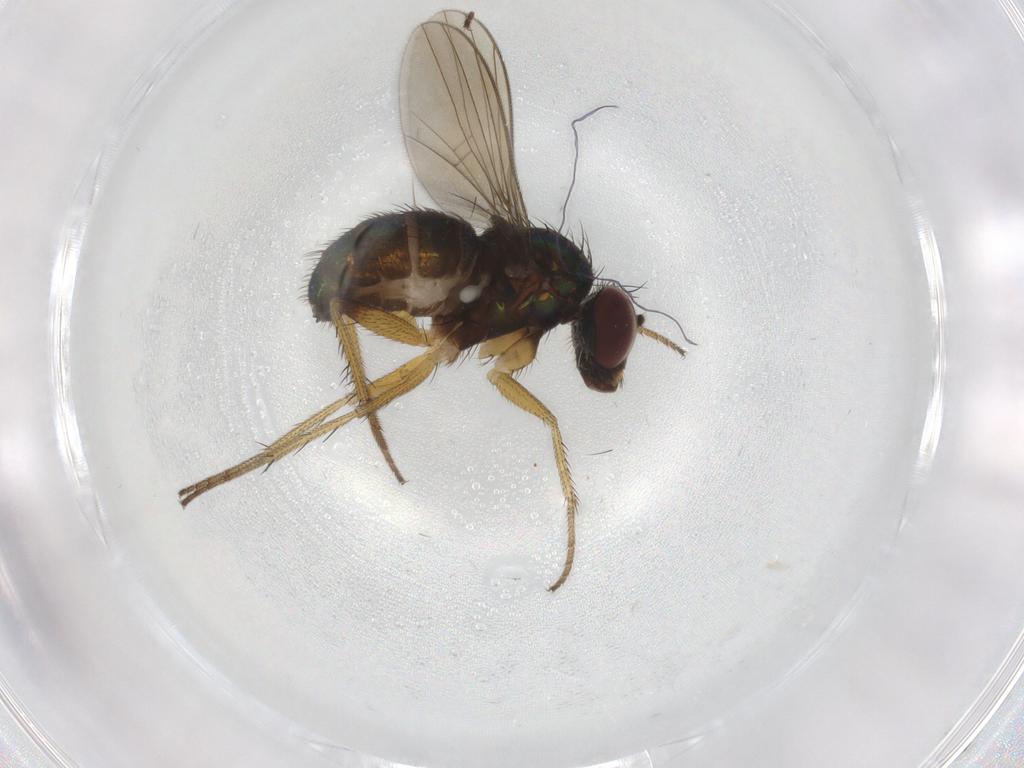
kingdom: Animalia
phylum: Arthropoda
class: Insecta
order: Diptera
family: Dolichopodidae
